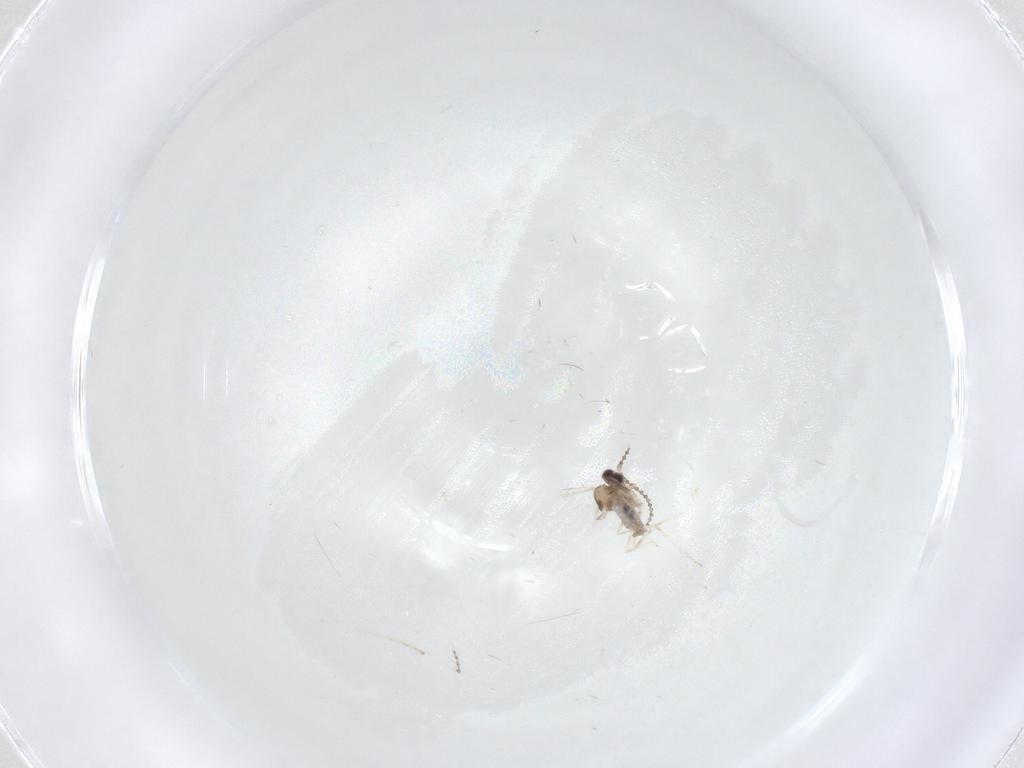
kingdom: Animalia
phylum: Arthropoda
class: Insecta
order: Diptera
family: Cecidomyiidae
